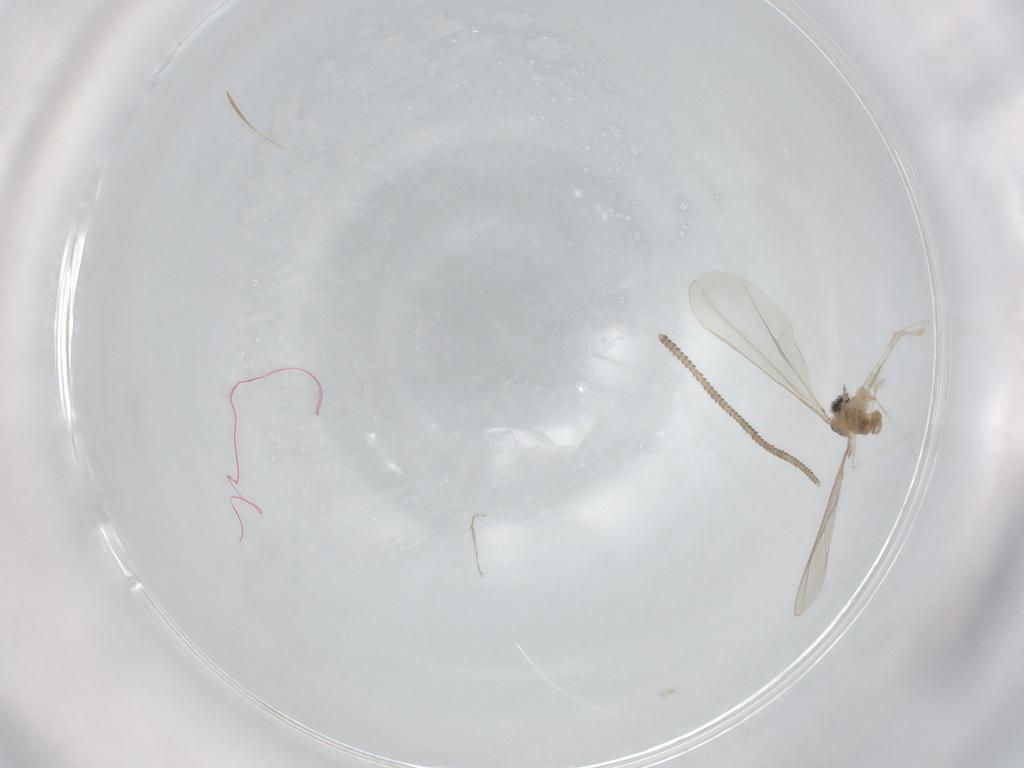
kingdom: Animalia
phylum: Arthropoda
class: Insecta
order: Diptera
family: Cecidomyiidae
